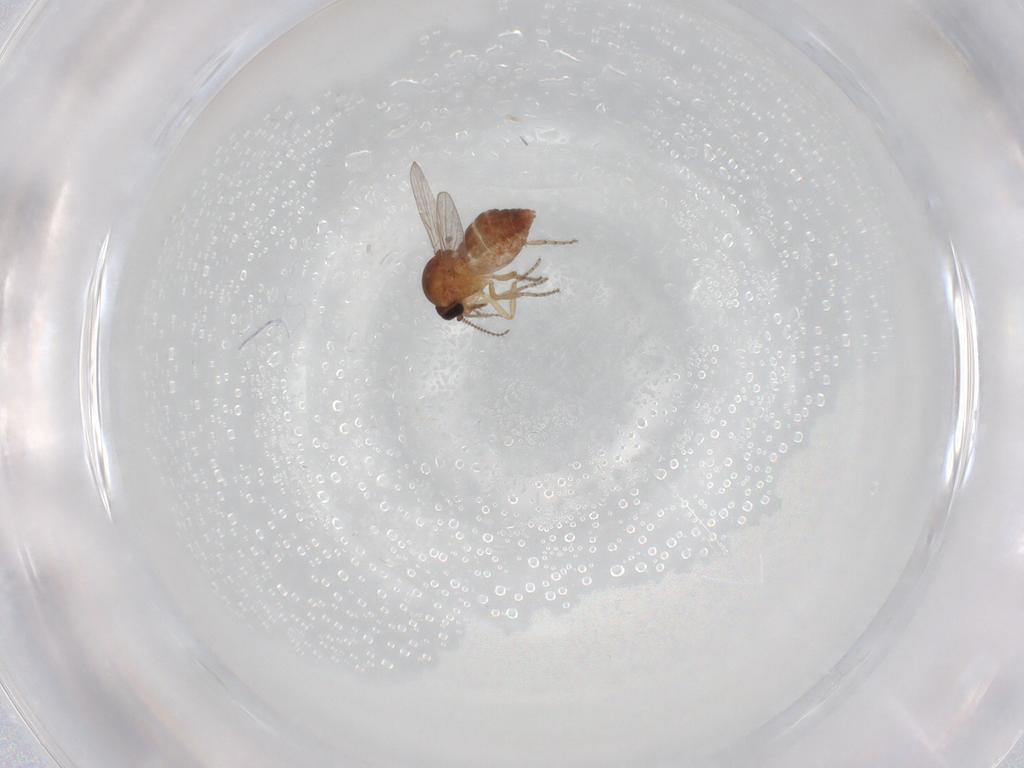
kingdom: Animalia
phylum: Arthropoda
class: Insecta
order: Diptera
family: Ceratopogonidae
